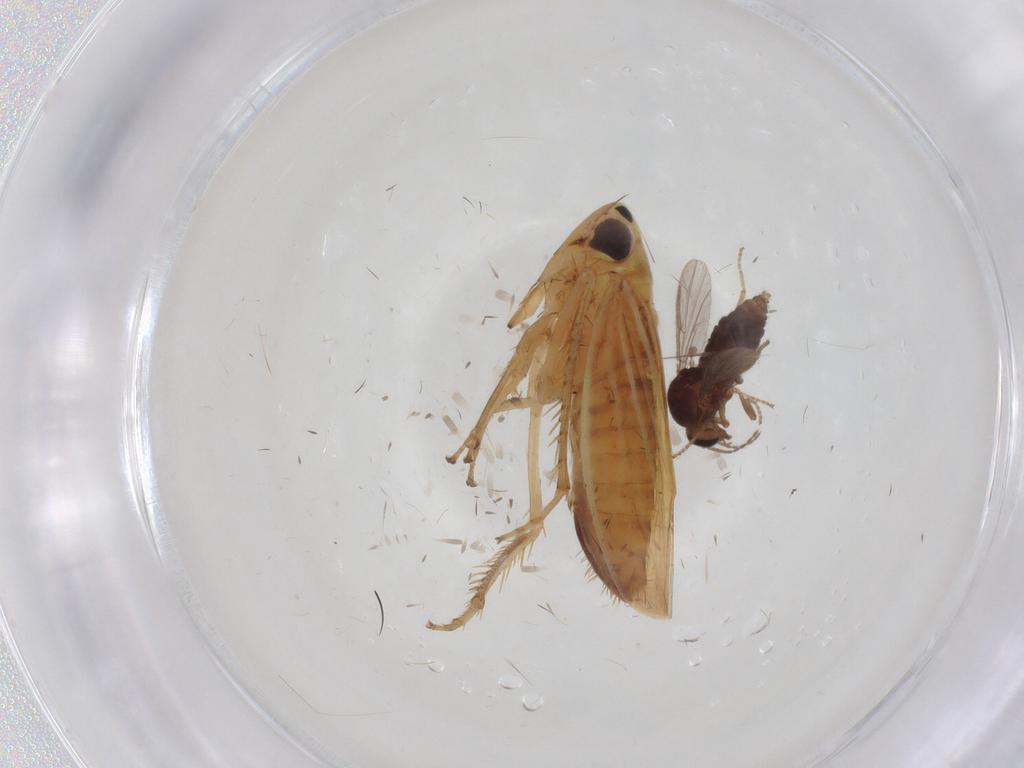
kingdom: Animalia
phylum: Arthropoda
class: Insecta
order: Hemiptera
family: Cicadellidae
